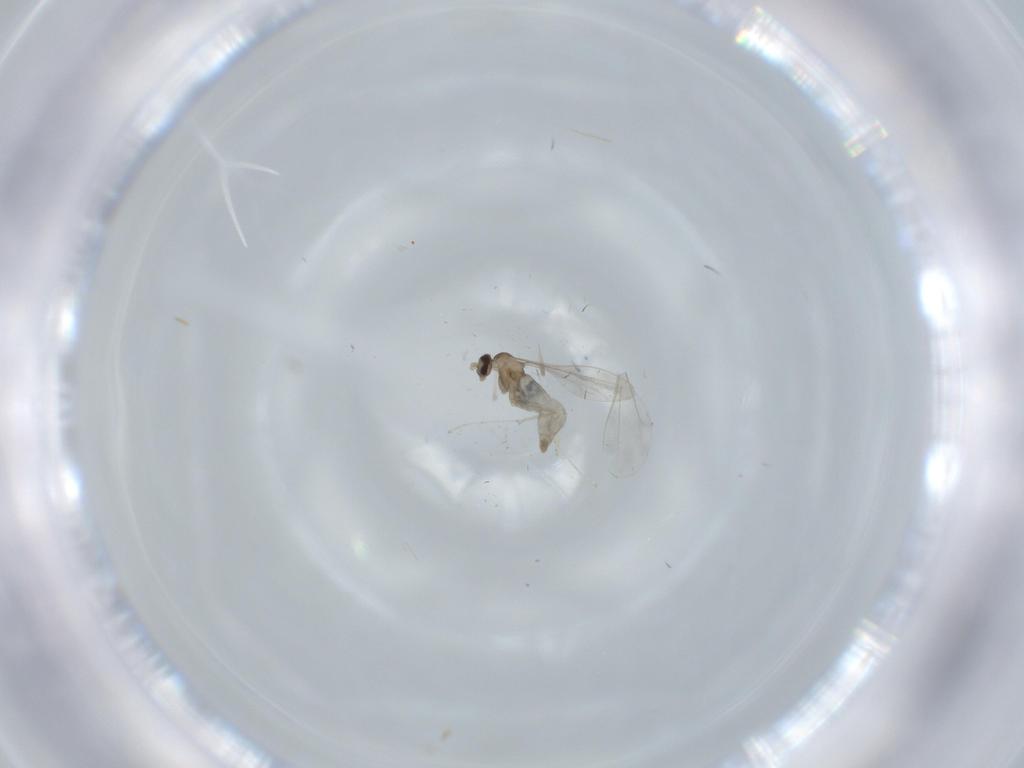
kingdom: Animalia
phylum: Arthropoda
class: Insecta
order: Diptera
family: Cecidomyiidae
